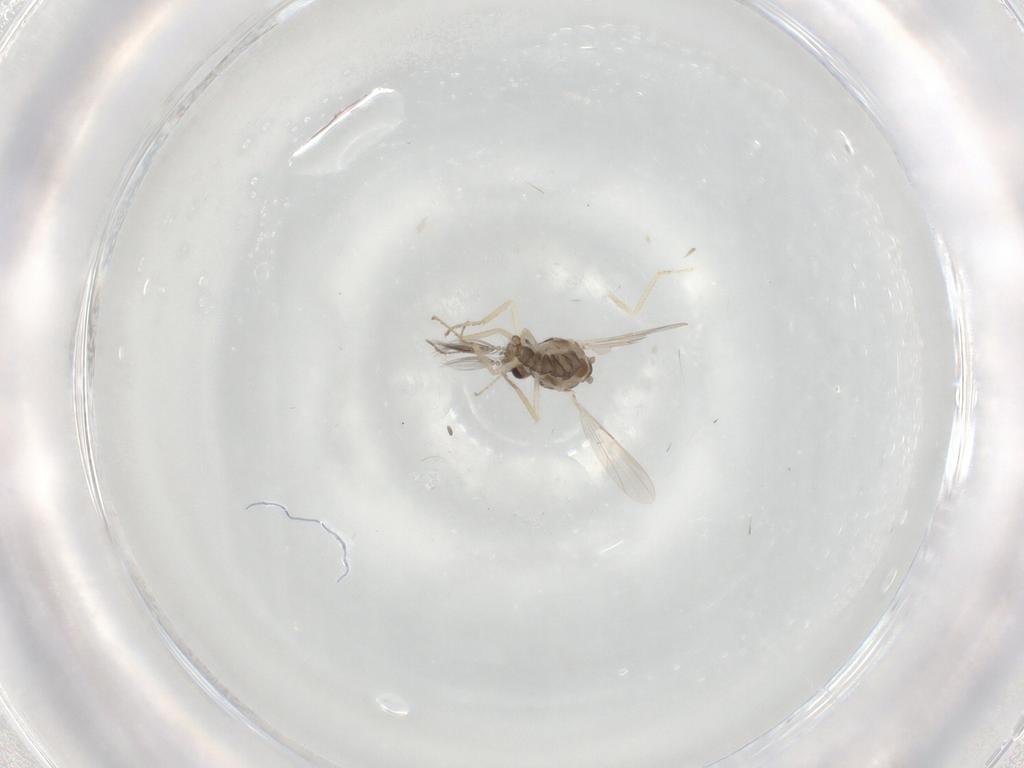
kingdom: Animalia
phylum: Arthropoda
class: Insecta
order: Diptera
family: Ceratopogonidae
